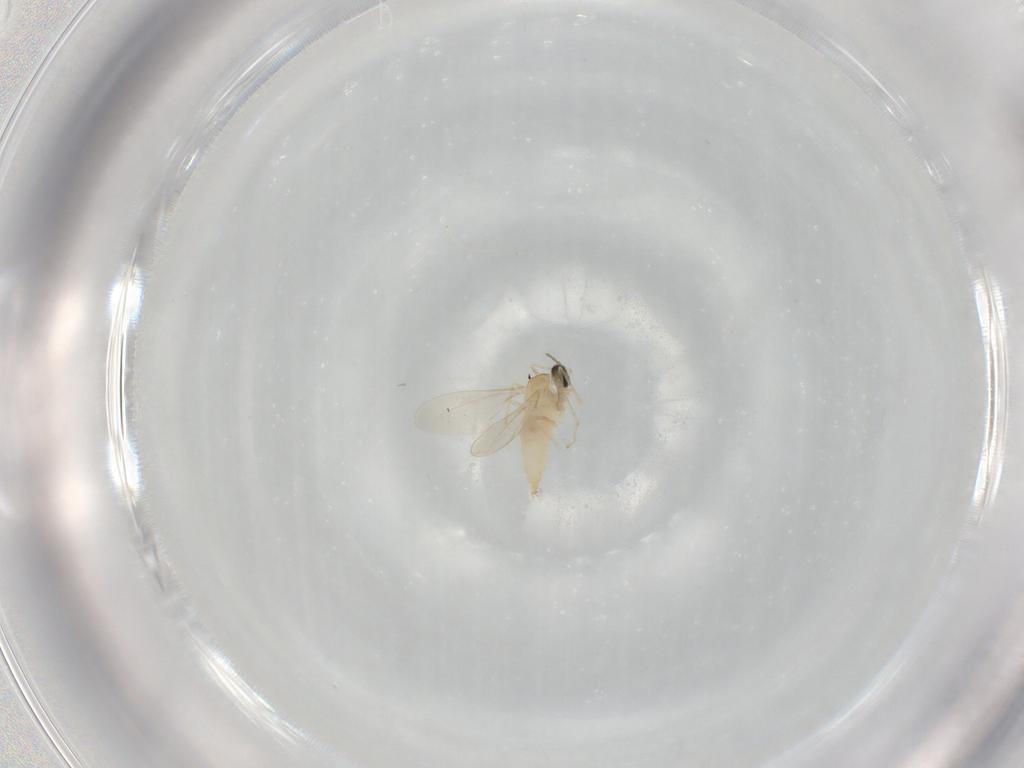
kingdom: Animalia
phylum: Arthropoda
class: Insecta
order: Diptera
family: Cecidomyiidae
